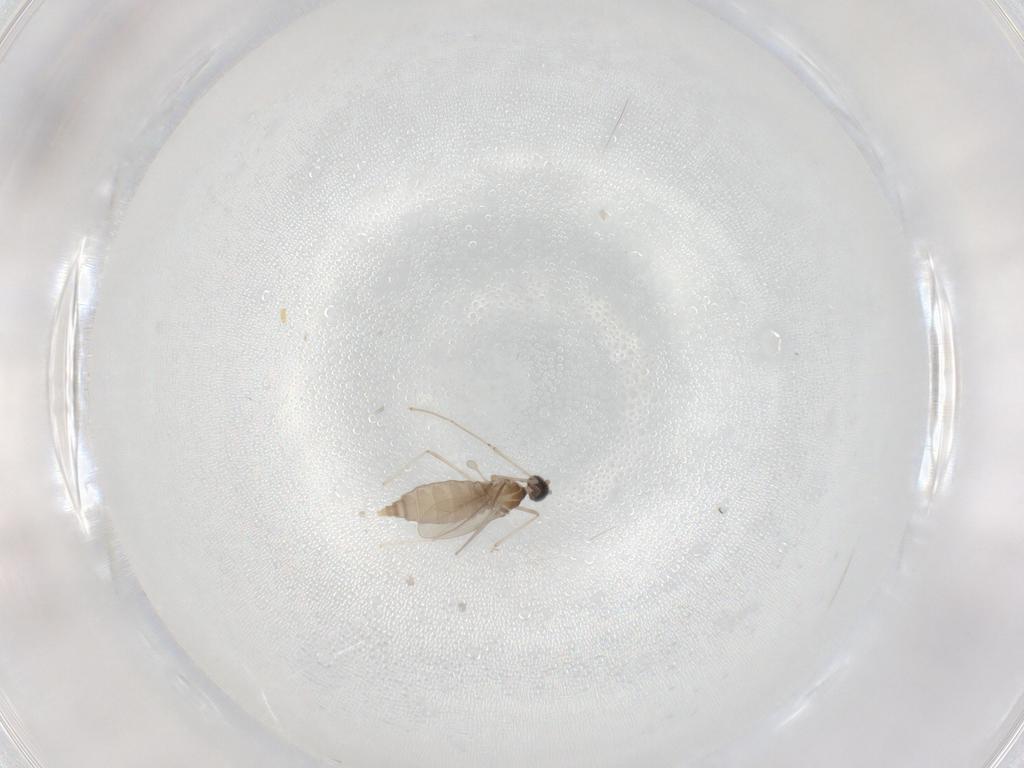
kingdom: Animalia
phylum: Arthropoda
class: Insecta
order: Diptera
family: Cecidomyiidae
